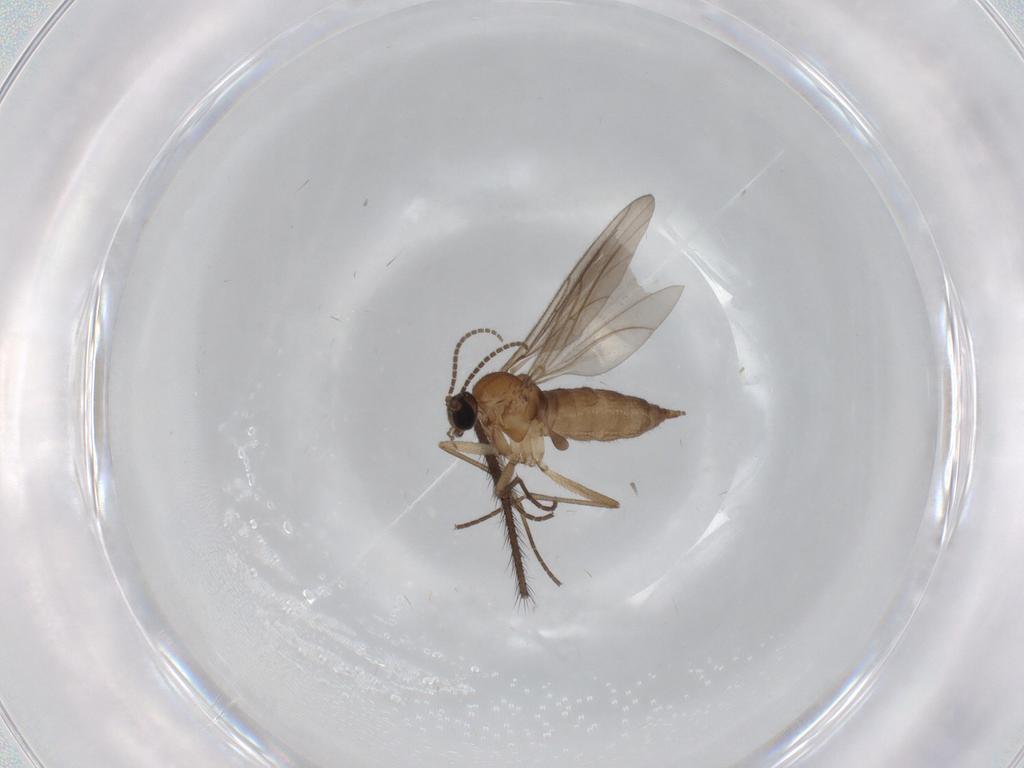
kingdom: Animalia
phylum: Arthropoda
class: Insecta
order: Diptera
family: Sciaridae
